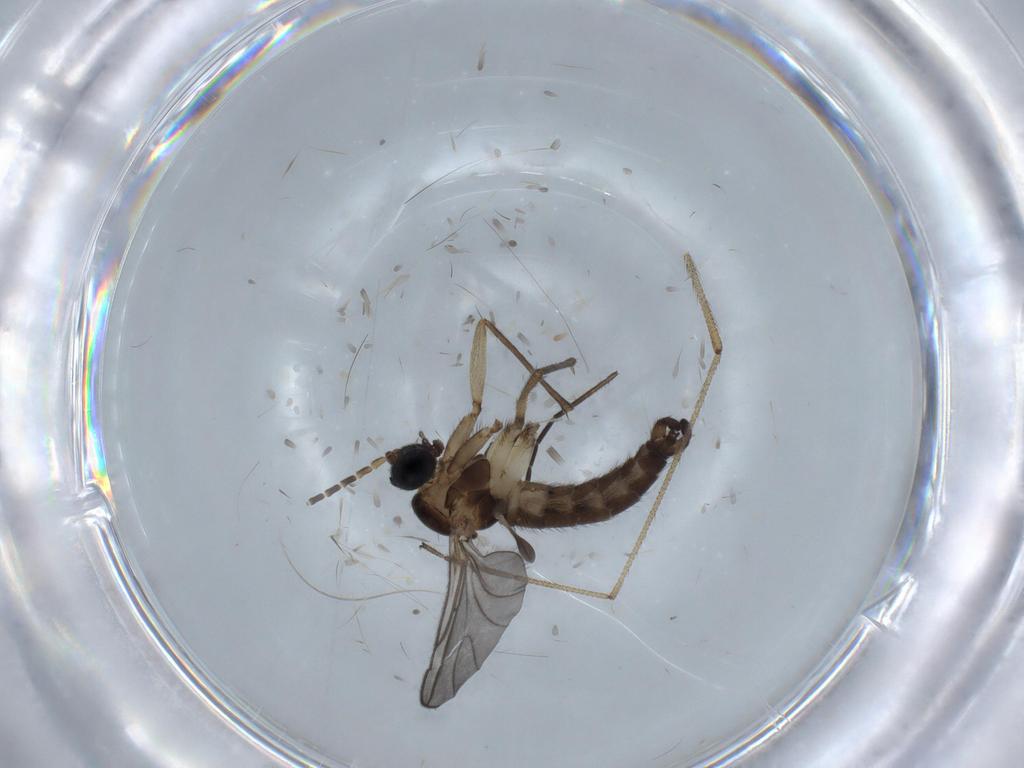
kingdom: Animalia
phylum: Arthropoda
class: Insecta
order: Diptera
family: Sciaridae
